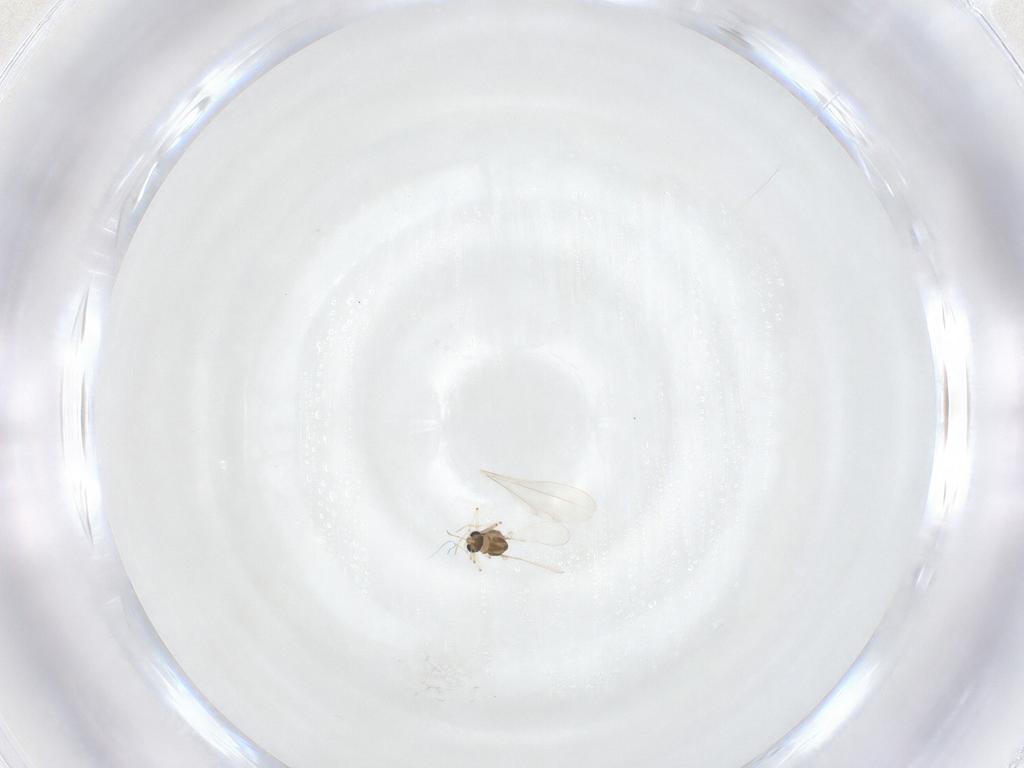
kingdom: Animalia
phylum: Arthropoda
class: Insecta
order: Diptera
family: Chironomidae
